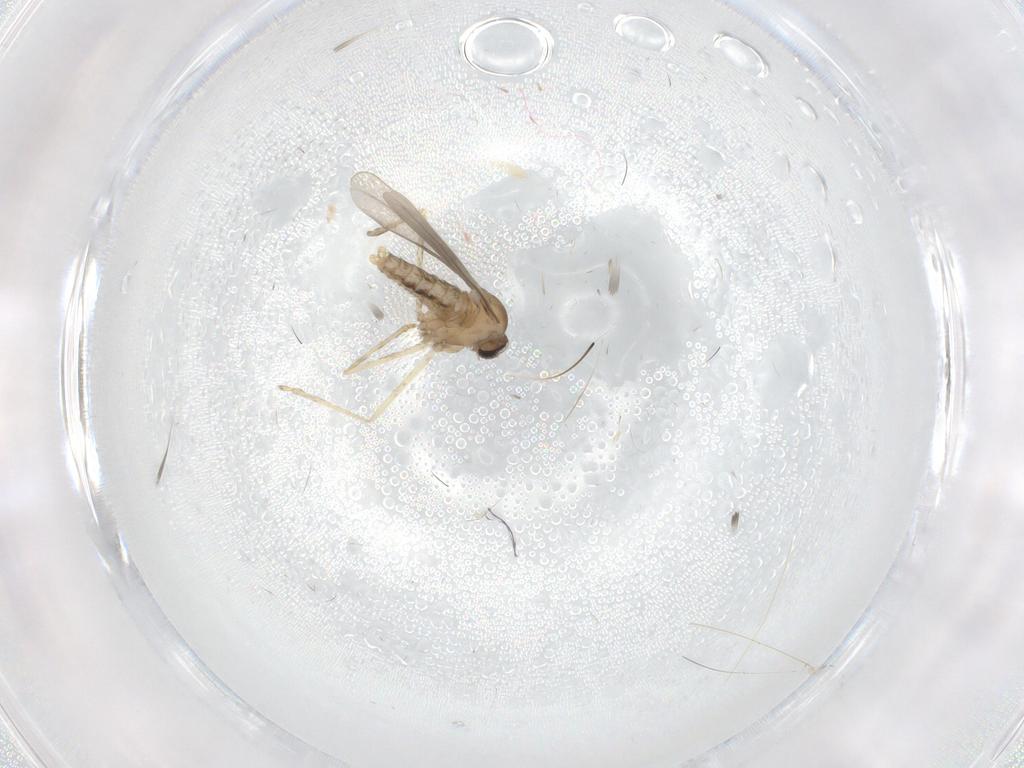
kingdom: Animalia
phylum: Arthropoda
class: Insecta
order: Diptera
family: Cecidomyiidae
